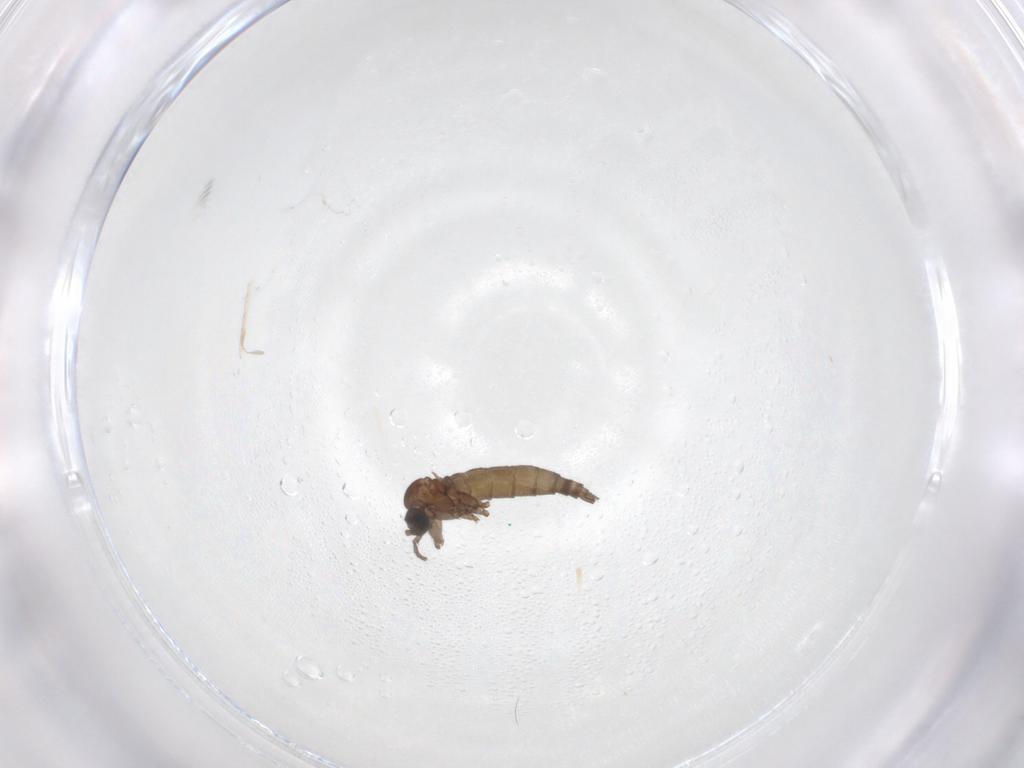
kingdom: Animalia
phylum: Arthropoda
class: Insecta
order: Diptera
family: Sciaridae
